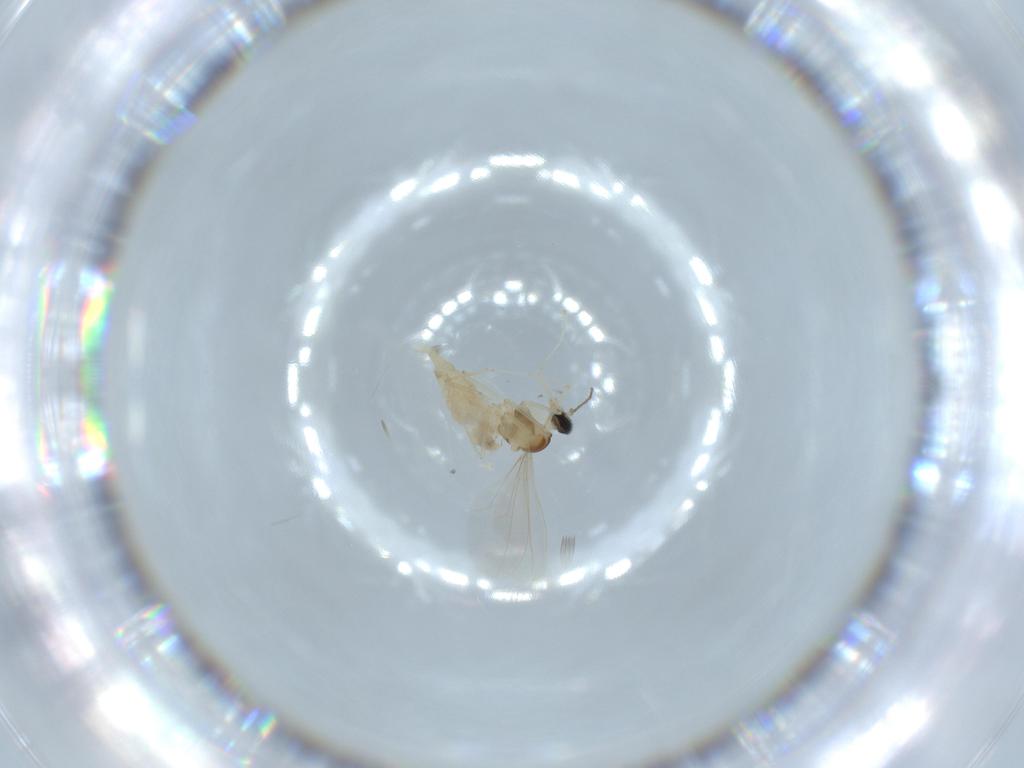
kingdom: Animalia
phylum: Arthropoda
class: Insecta
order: Diptera
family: Cecidomyiidae
